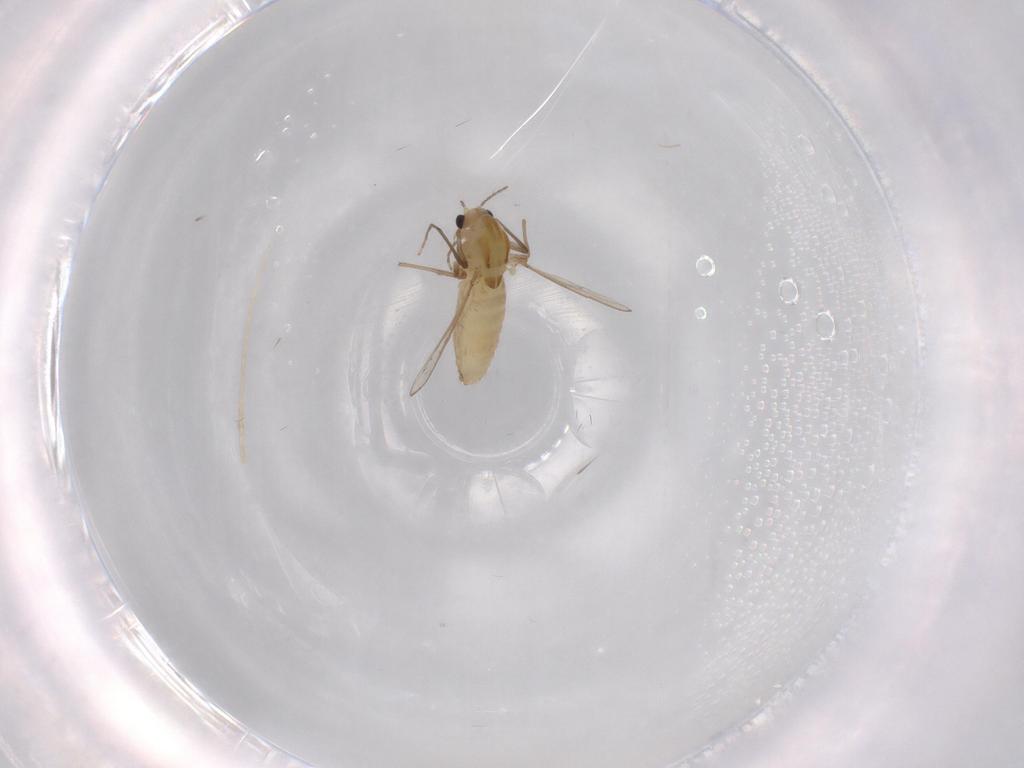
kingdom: Animalia
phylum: Arthropoda
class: Insecta
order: Diptera
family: Chironomidae
